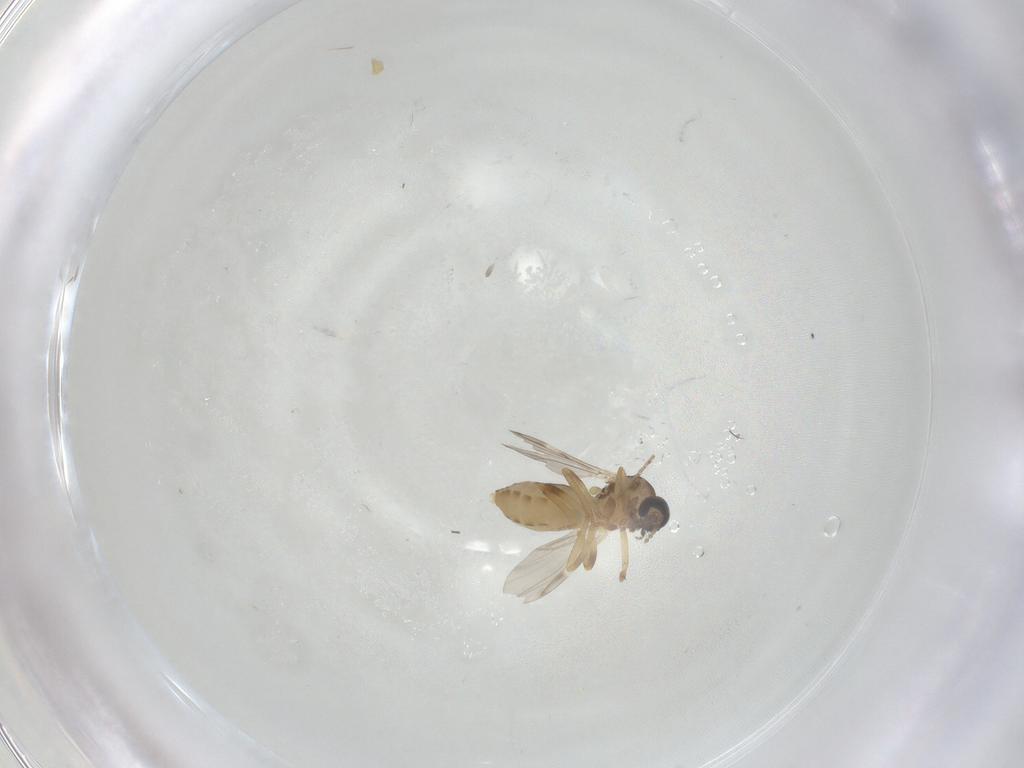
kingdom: Animalia
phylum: Arthropoda
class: Insecta
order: Diptera
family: Ceratopogonidae
